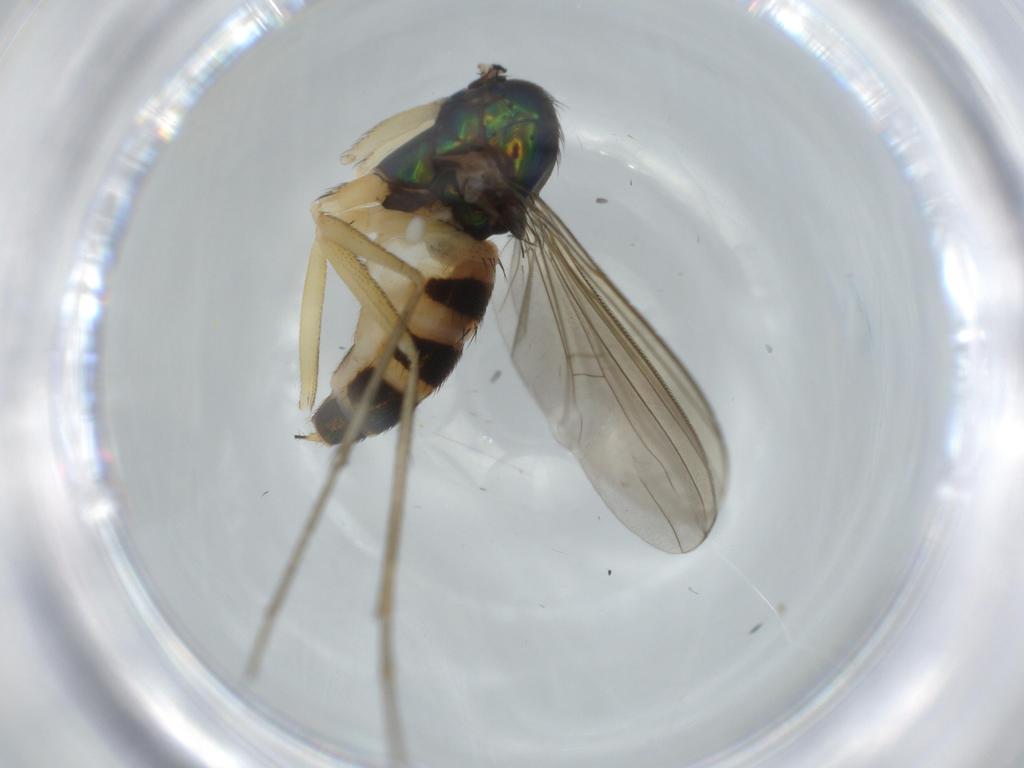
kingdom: Animalia
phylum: Arthropoda
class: Insecta
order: Diptera
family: Dolichopodidae
